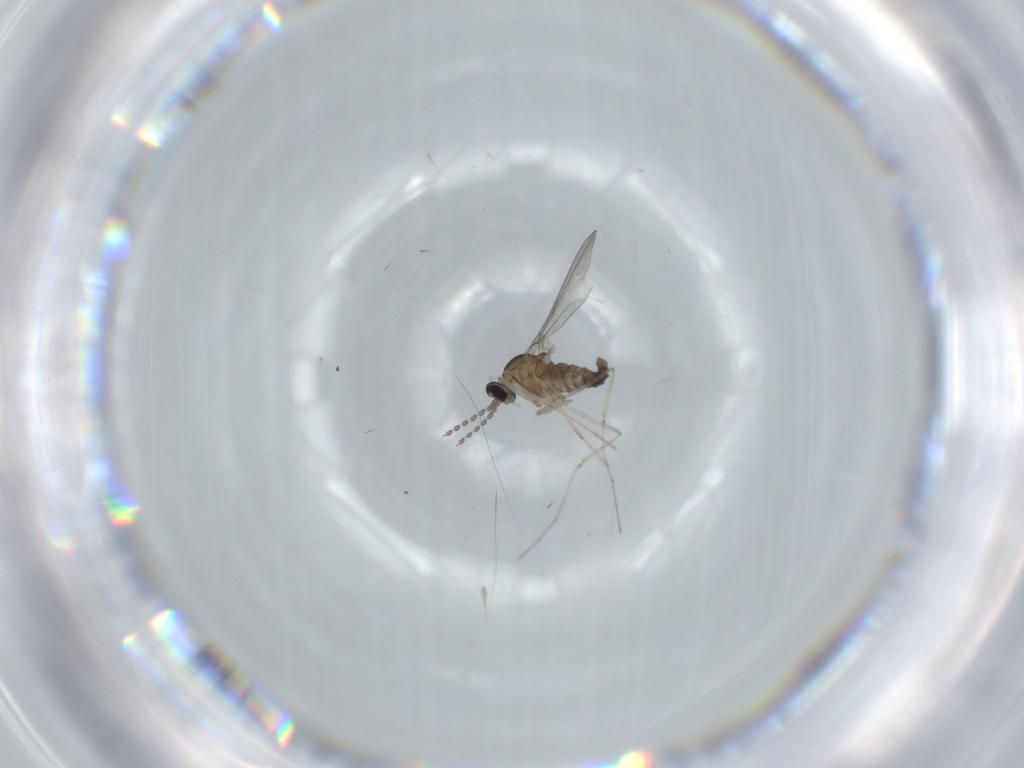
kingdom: Animalia
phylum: Arthropoda
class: Insecta
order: Diptera
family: Cecidomyiidae
